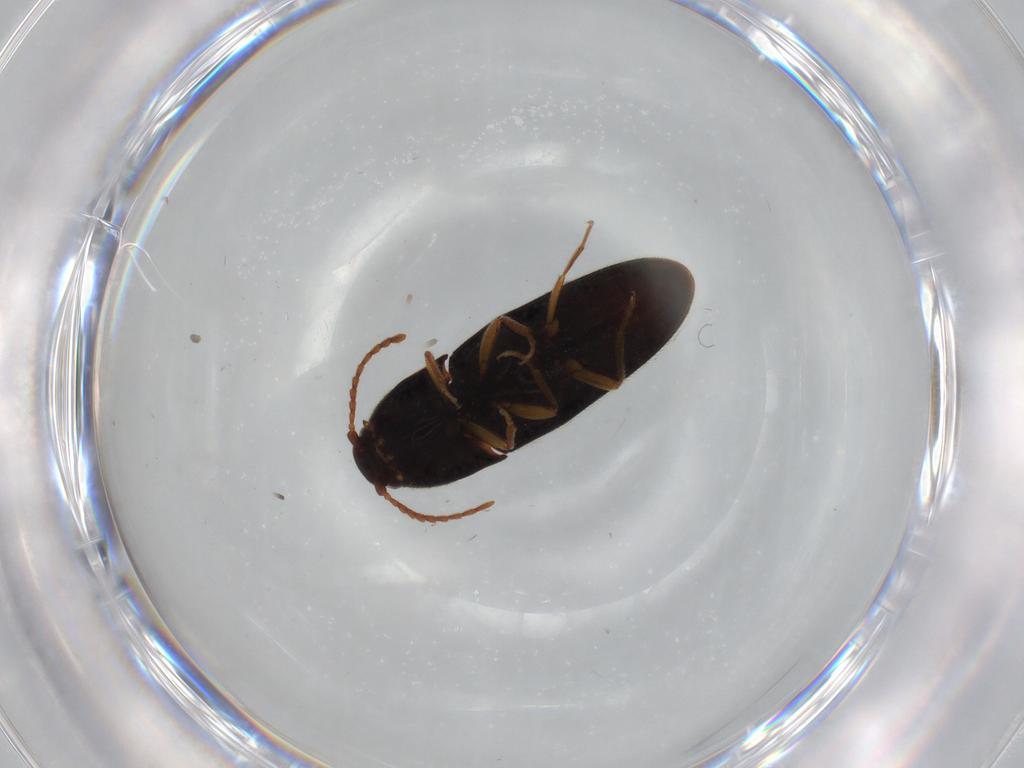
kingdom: Animalia
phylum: Arthropoda
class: Insecta
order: Coleoptera
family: Elateridae
